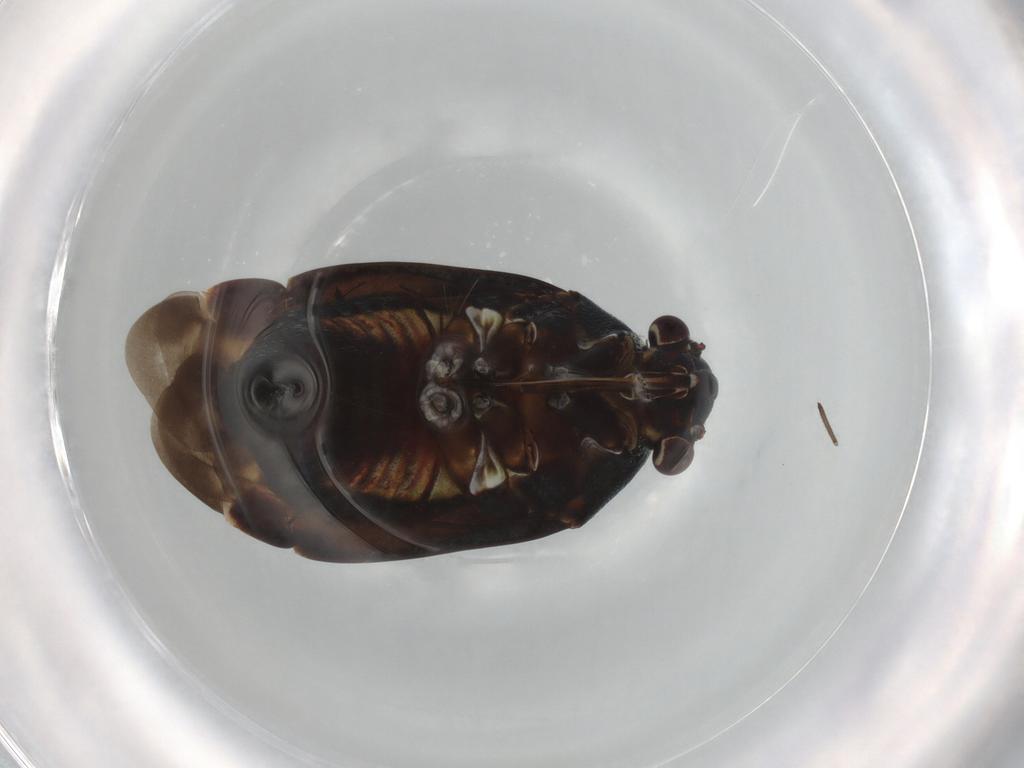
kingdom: Animalia
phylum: Arthropoda
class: Insecta
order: Hemiptera
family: Miridae
